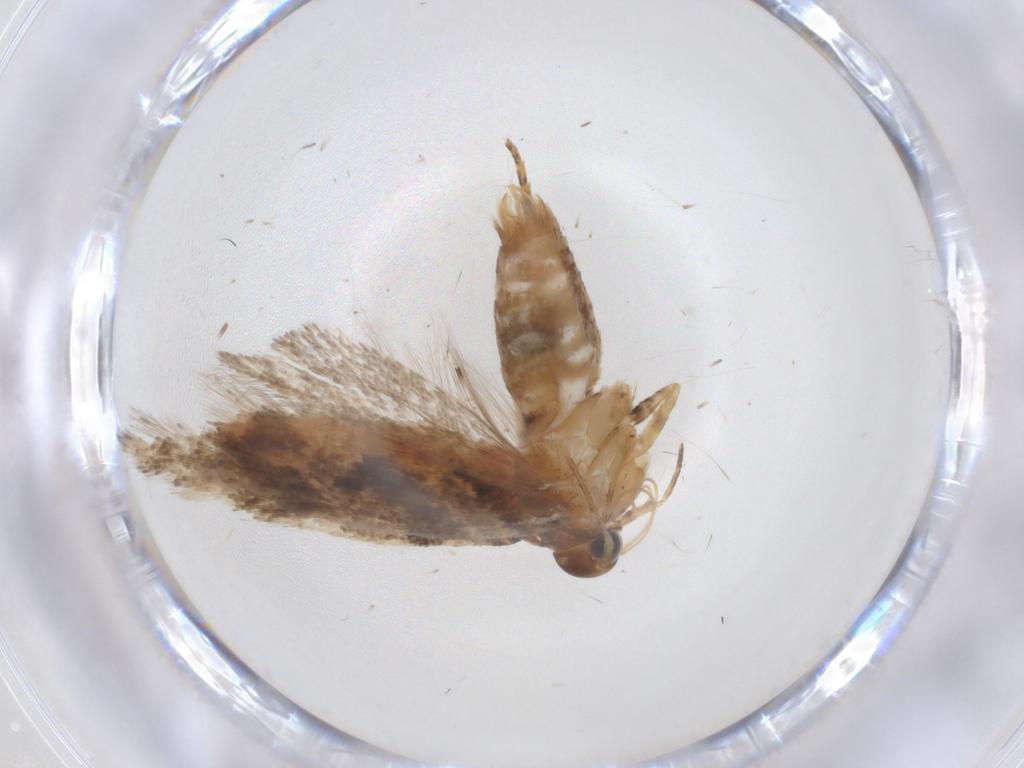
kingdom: Animalia
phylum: Arthropoda
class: Insecta
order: Lepidoptera
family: Gelechiidae
